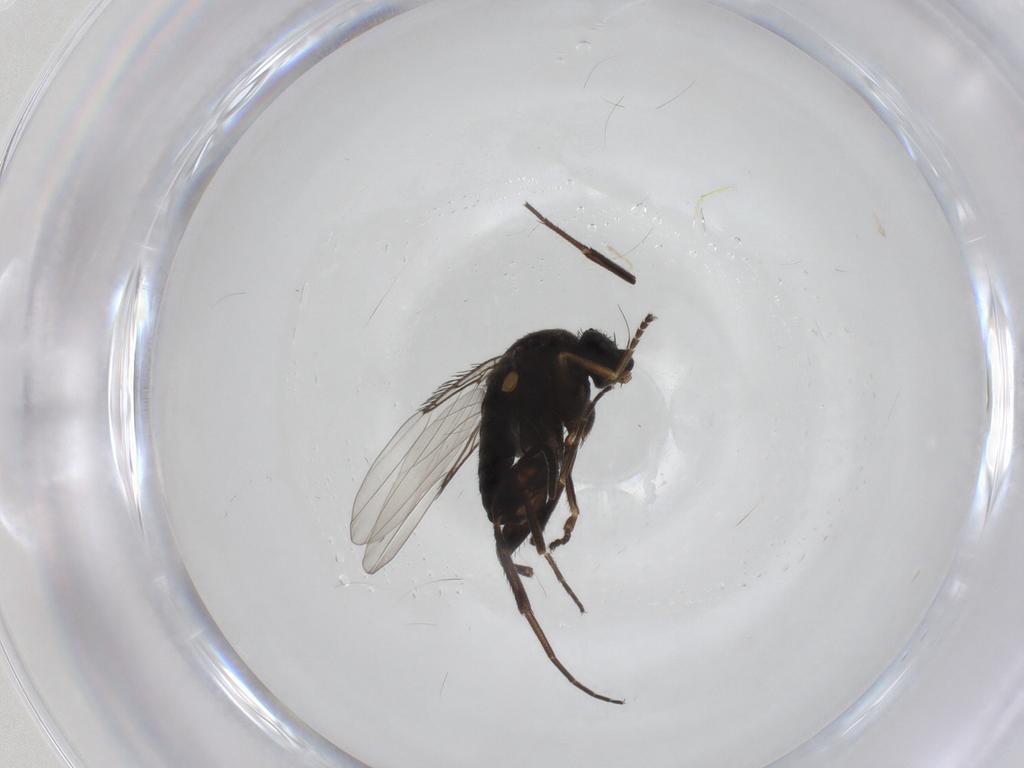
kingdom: Animalia
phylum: Arthropoda
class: Insecta
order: Diptera
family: Phoridae
